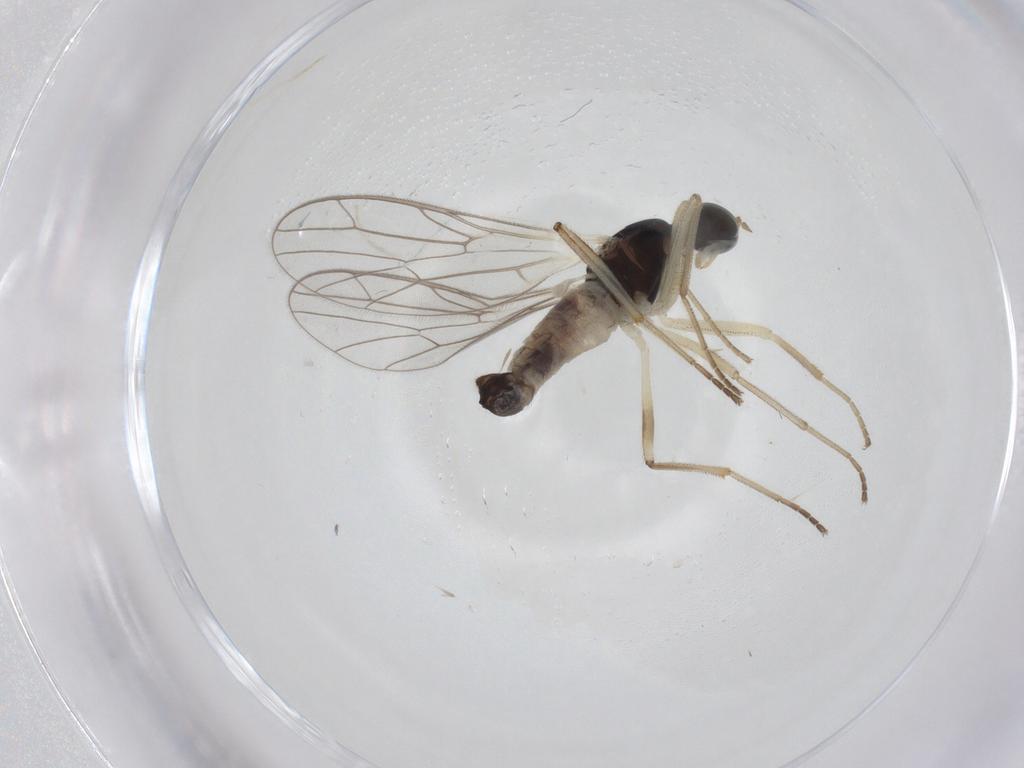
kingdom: Animalia
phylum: Arthropoda
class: Insecta
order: Diptera
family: Empididae
